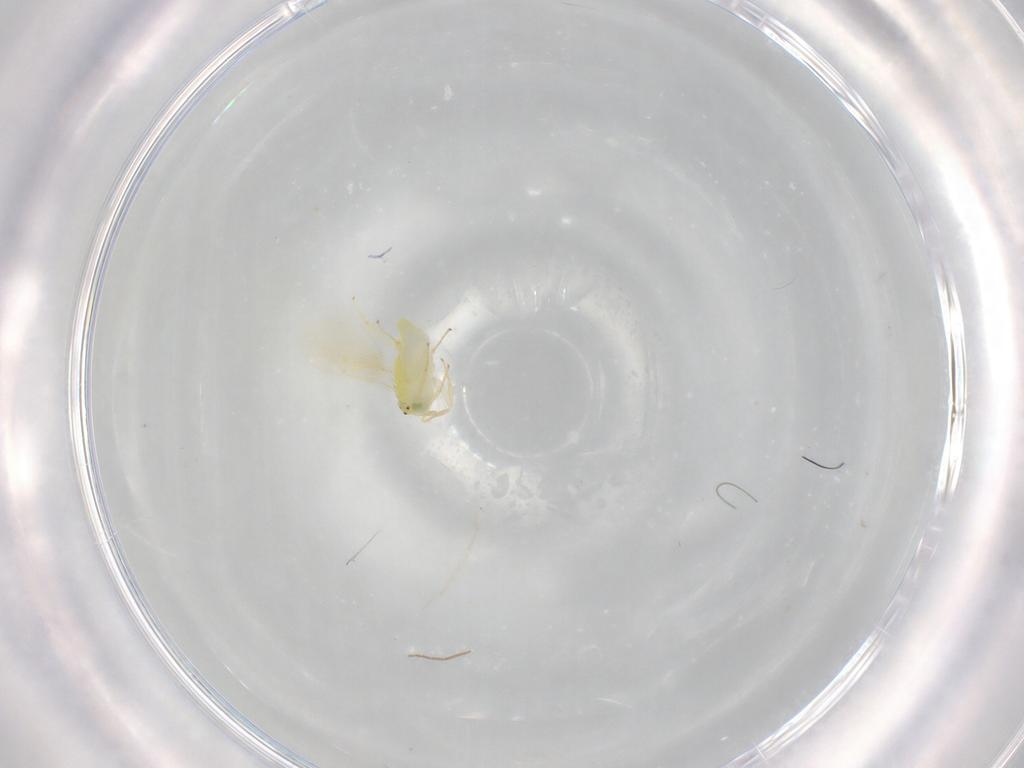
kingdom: Animalia
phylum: Arthropoda
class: Insecta
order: Hymenoptera
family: Aphelinidae
